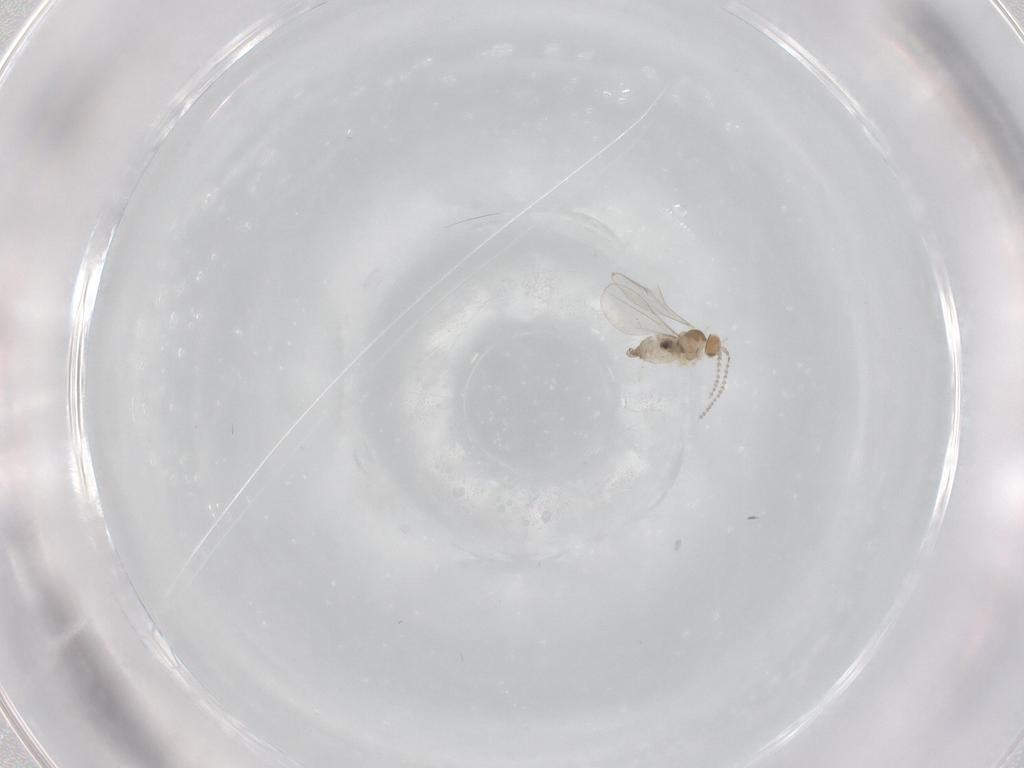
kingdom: Animalia
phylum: Arthropoda
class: Insecta
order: Diptera
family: Cecidomyiidae
